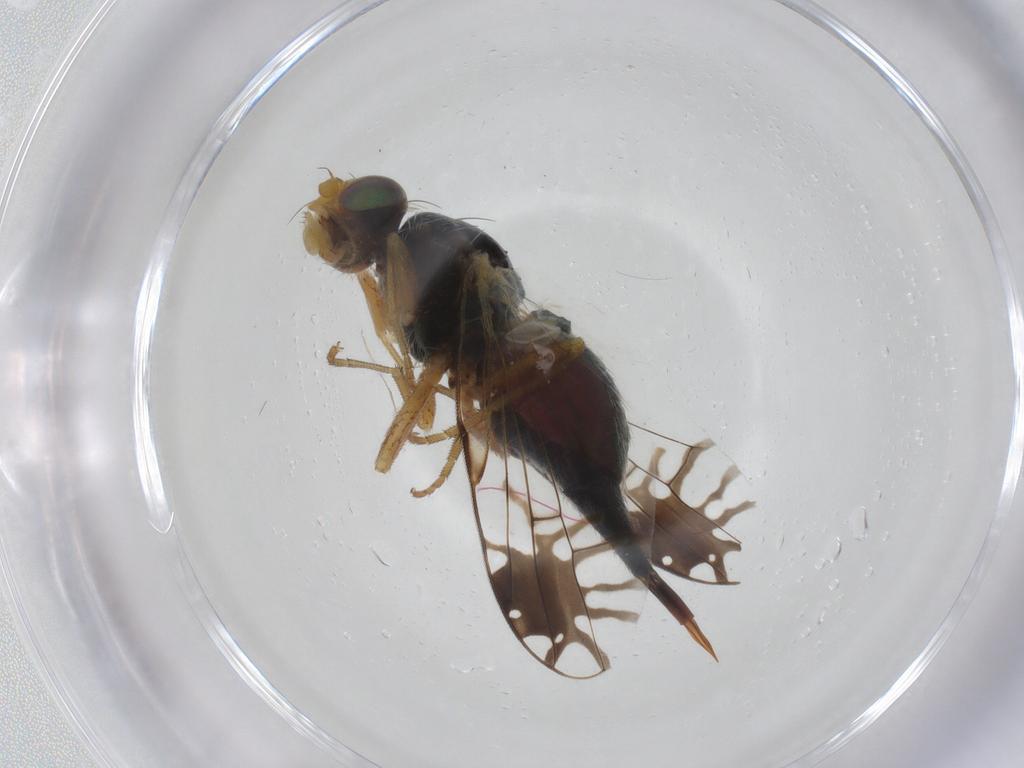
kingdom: Animalia
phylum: Arthropoda
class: Insecta
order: Diptera
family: Tephritidae
